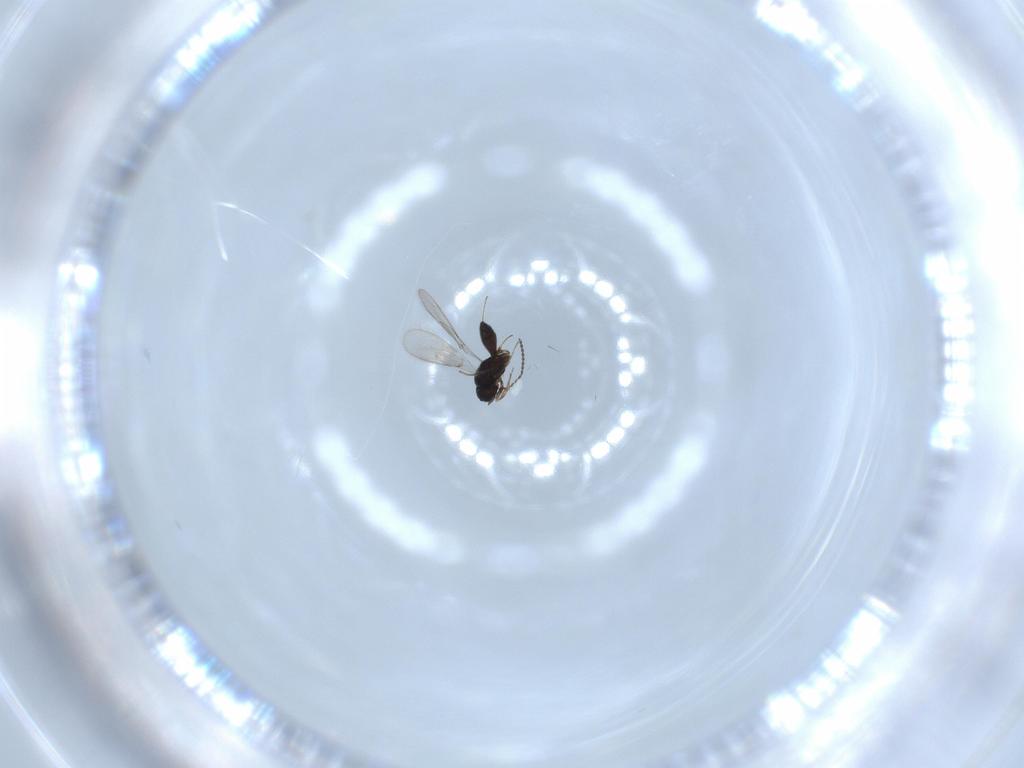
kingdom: Animalia
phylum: Arthropoda
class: Insecta
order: Hymenoptera
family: Scelionidae
